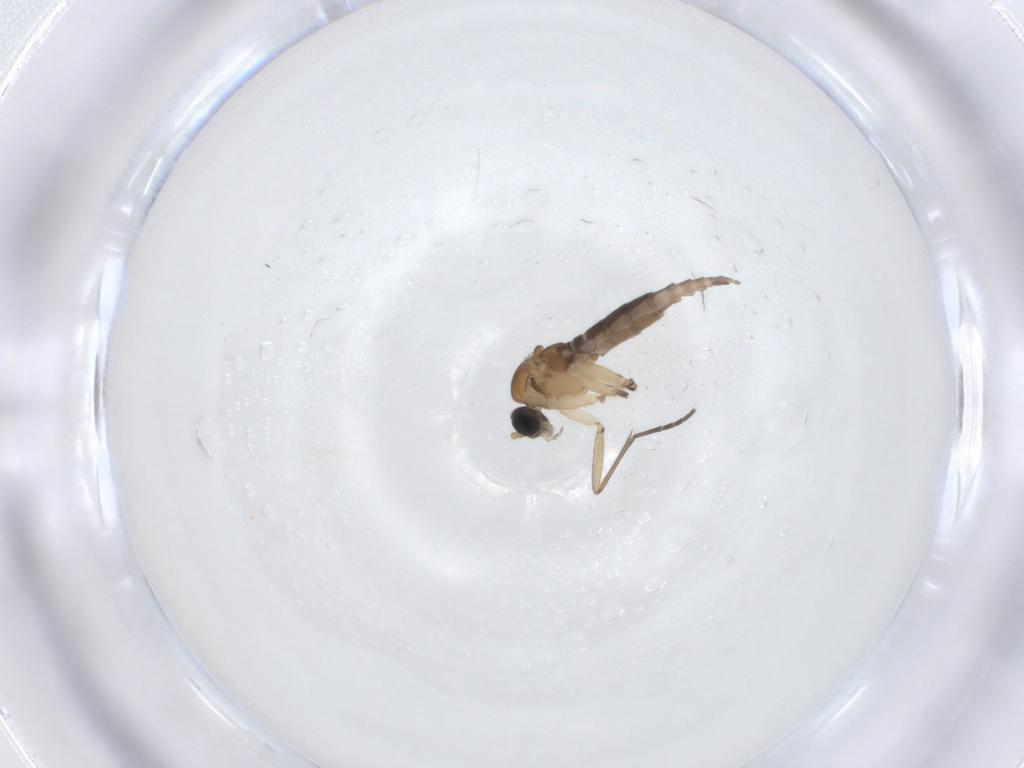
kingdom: Animalia
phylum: Arthropoda
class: Insecta
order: Diptera
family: Sciaridae
